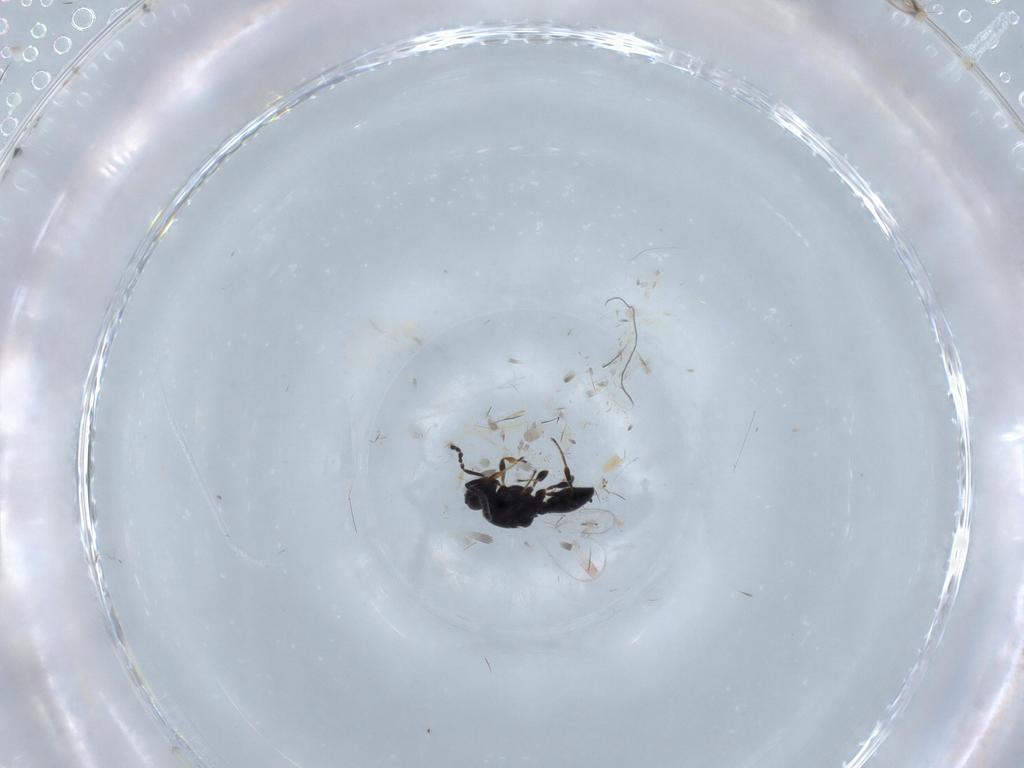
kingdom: Animalia
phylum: Arthropoda
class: Insecta
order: Hymenoptera
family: Platygastridae
